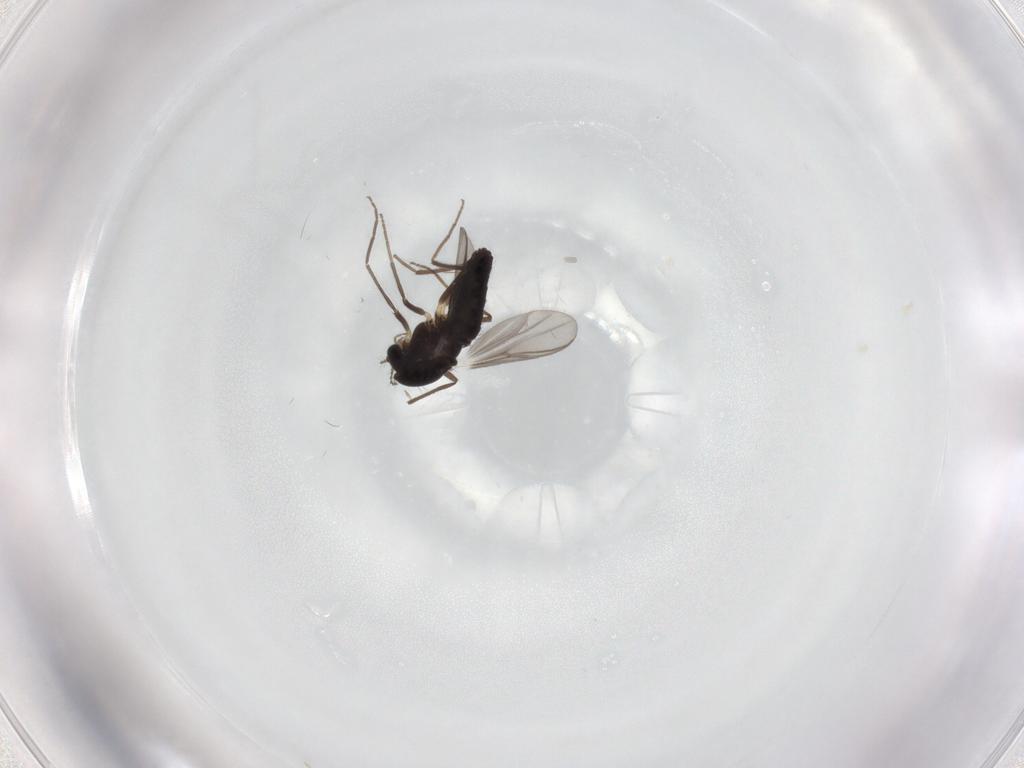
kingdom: Animalia
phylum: Arthropoda
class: Insecta
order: Diptera
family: Chironomidae
